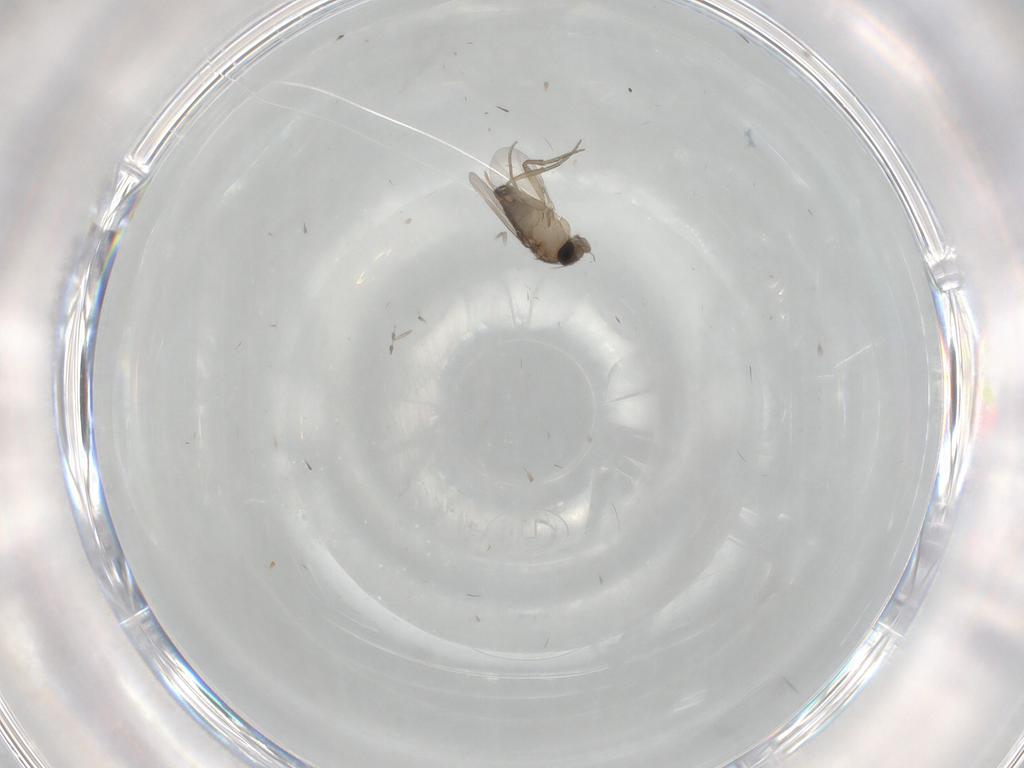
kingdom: Animalia
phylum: Arthropoda
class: Insecta
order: Diptera
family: Cecidomyiidae
